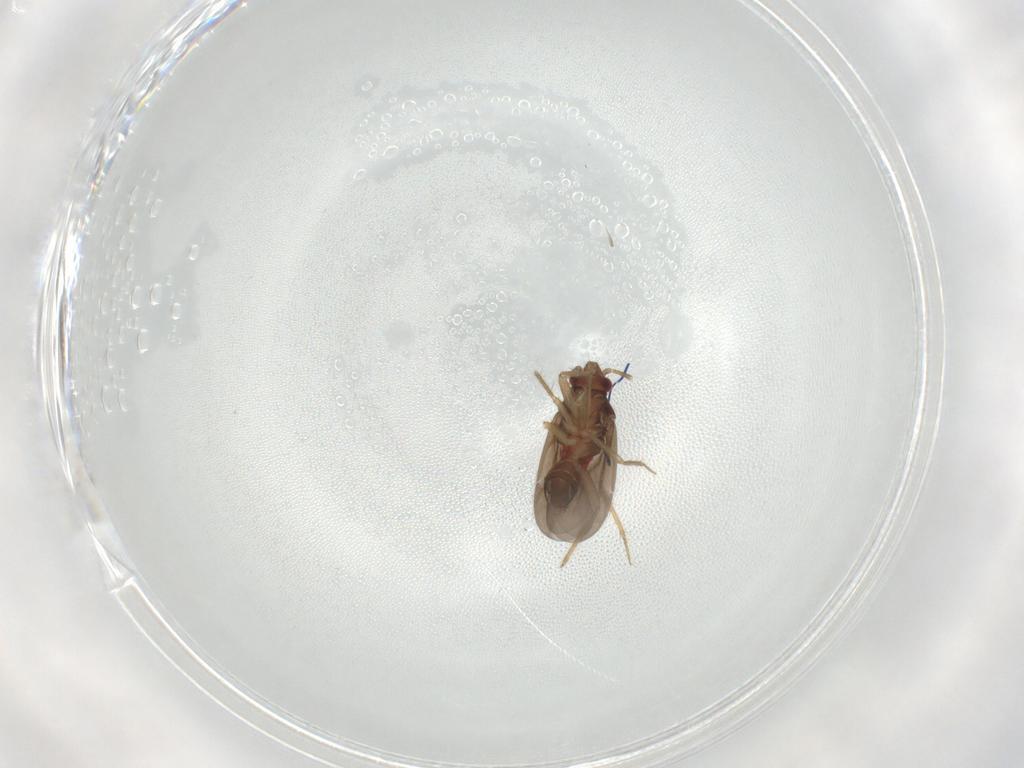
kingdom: Animalia
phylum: Arthropoda
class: Insecta
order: Hemiptera
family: Ceratocombidae
